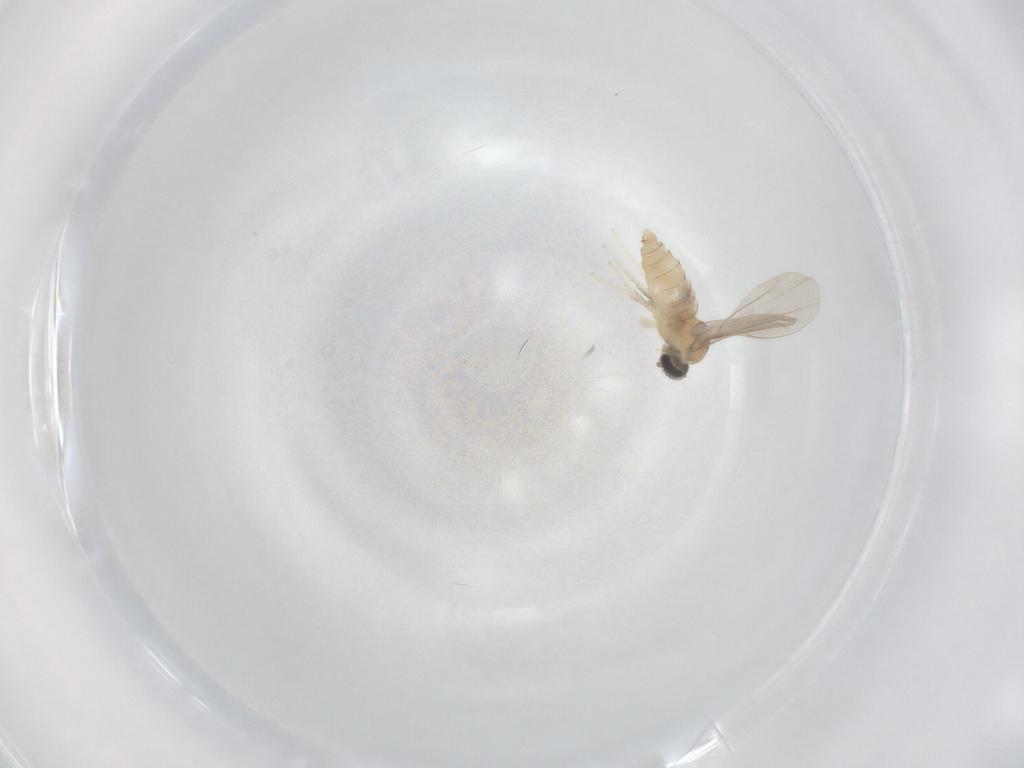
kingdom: Animalia
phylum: Arthropoda
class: Insecta
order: Diptera
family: Cecidomyiidae
